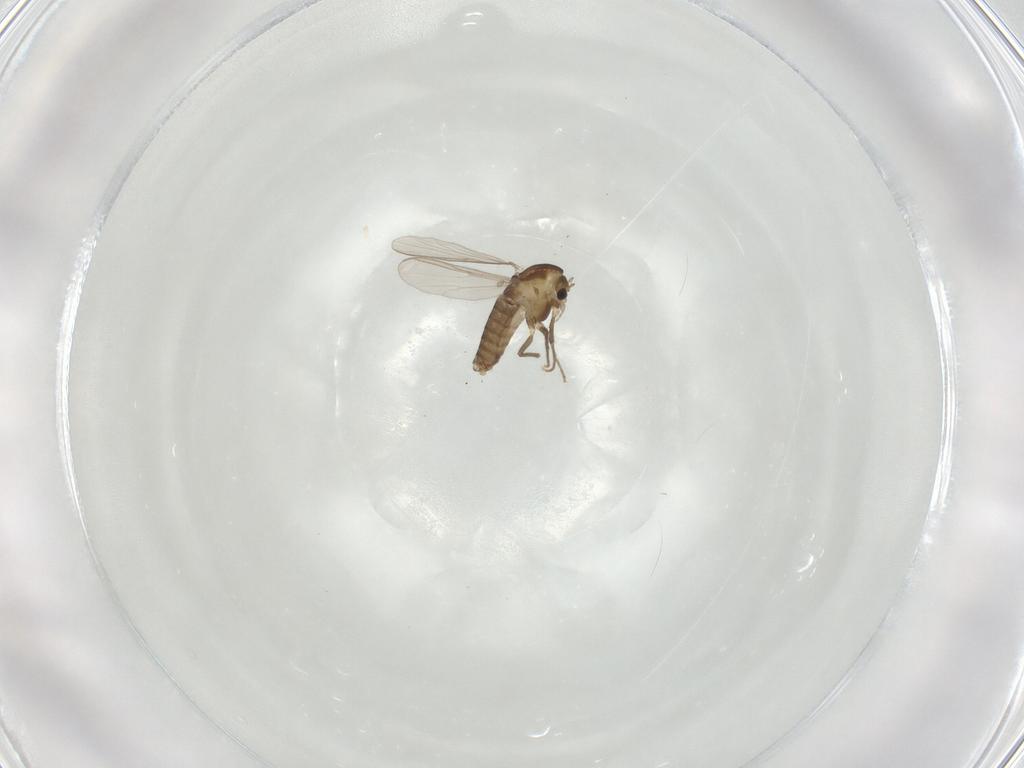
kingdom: Animalia
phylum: Arthropoda
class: Insecta
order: Diptera
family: Chironomidae
